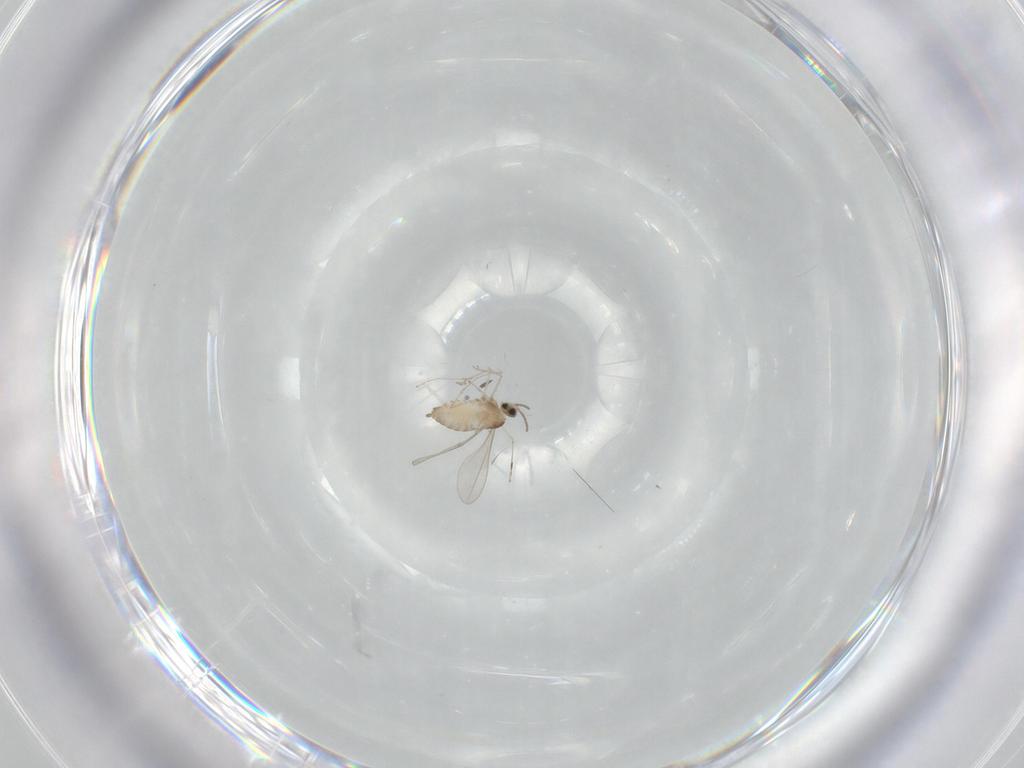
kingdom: Animalia
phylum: Arthropoda
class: Insecta
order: Diptera
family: Cecidomyiidae
